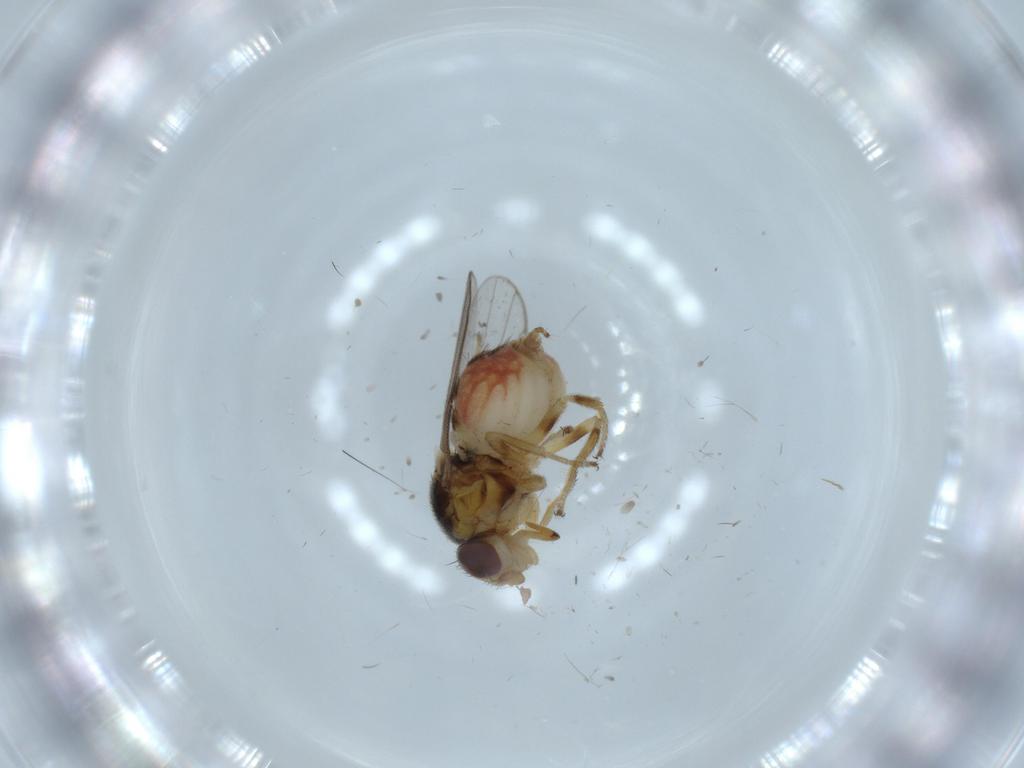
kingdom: Animalia
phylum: Arthropoda
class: Insecta
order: Diptera
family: Chloropidae
